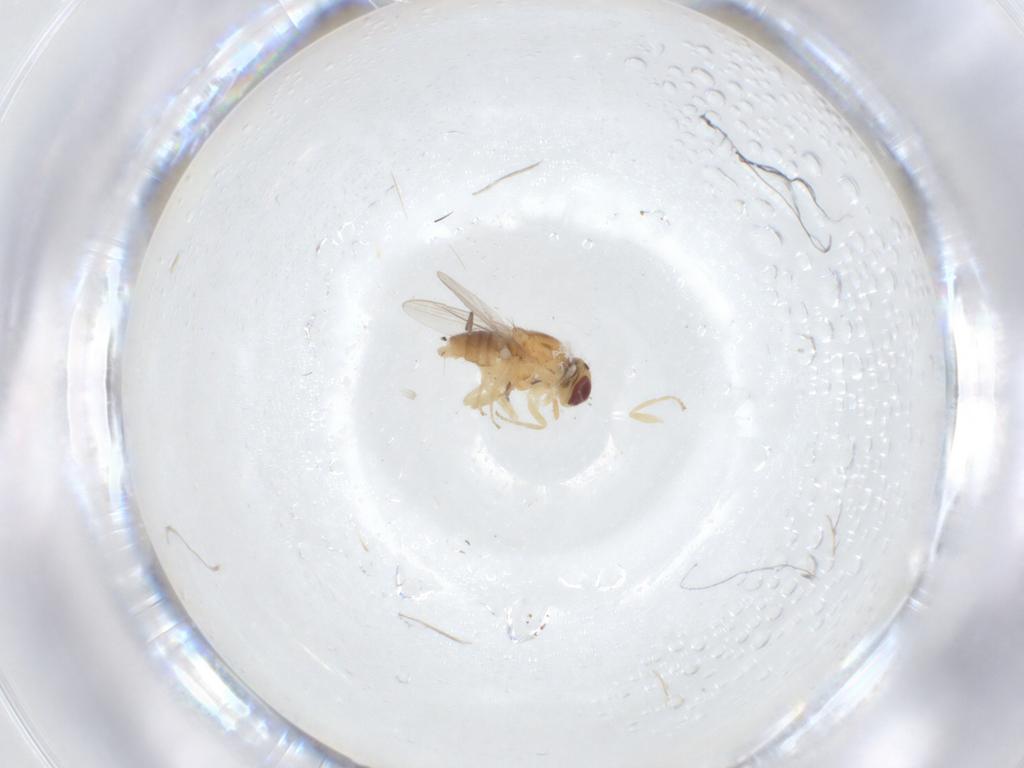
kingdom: Animalia
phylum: Arthropoda
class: Insecta
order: Diptera
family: Chloropidae
